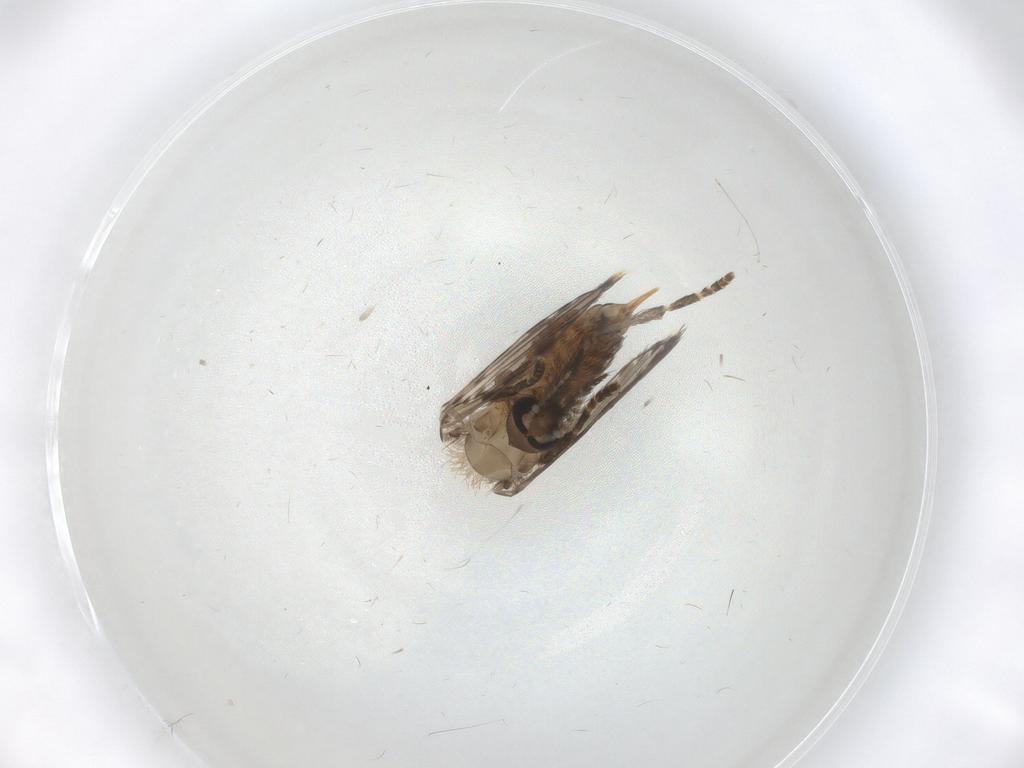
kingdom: Animalia
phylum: Arthropoda
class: Insecta
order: Diptera
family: Psychodidae
